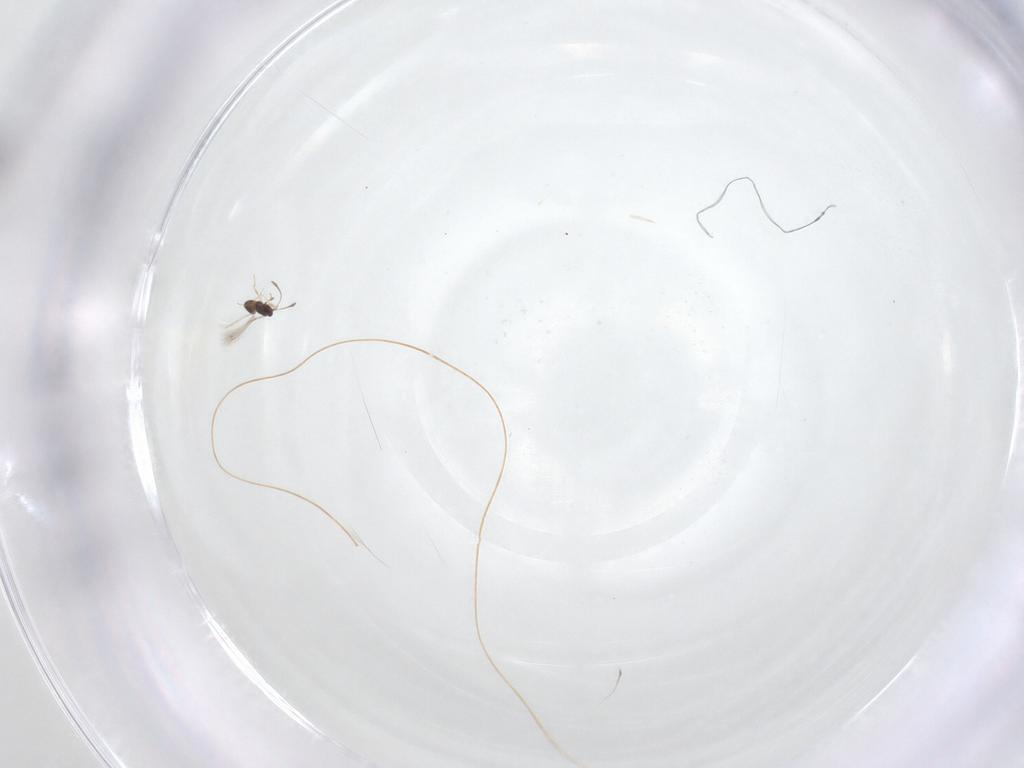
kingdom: Animalia
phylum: Arthropoda
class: Insecta
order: Hymenoptera
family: Mymaridae
